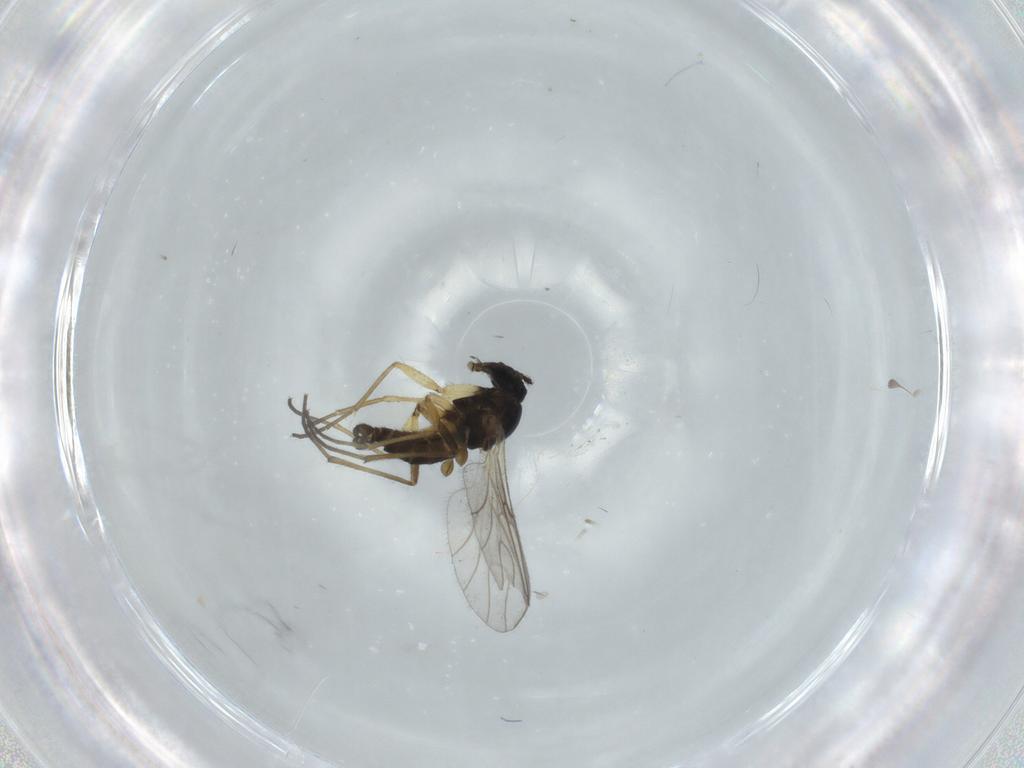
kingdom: Animalia
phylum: Arthropoda
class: Insecta
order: Diptera
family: Sciaridae
